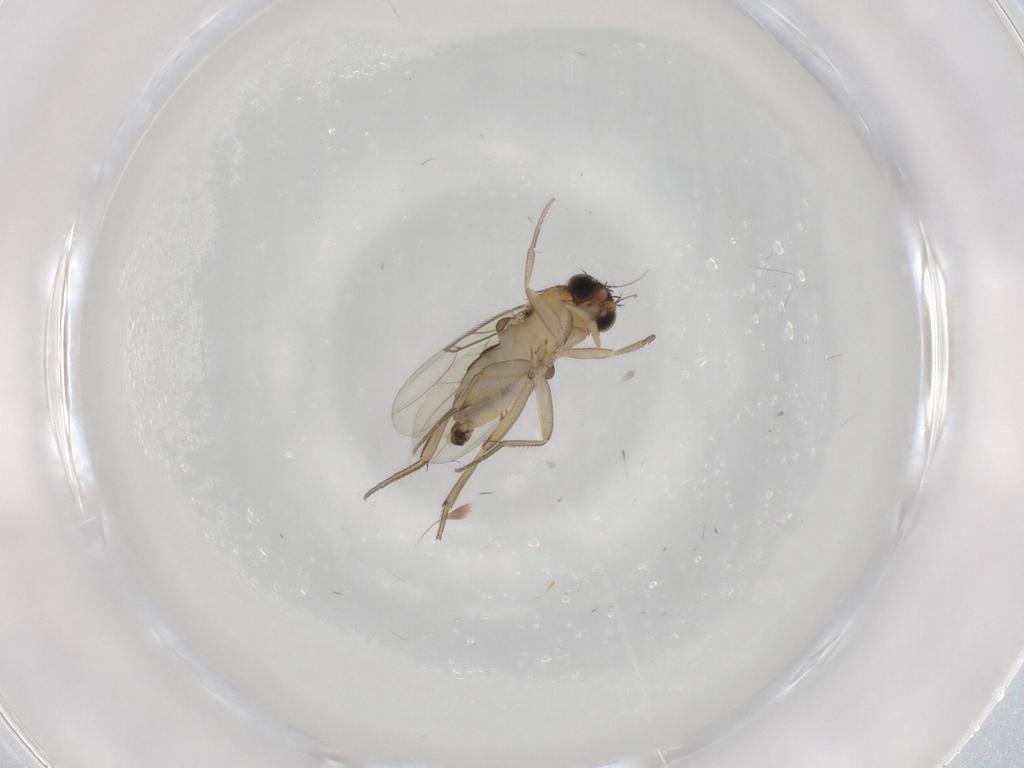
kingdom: Animalia
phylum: Arthropoda
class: Insecta
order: Diptera
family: Phoridae
